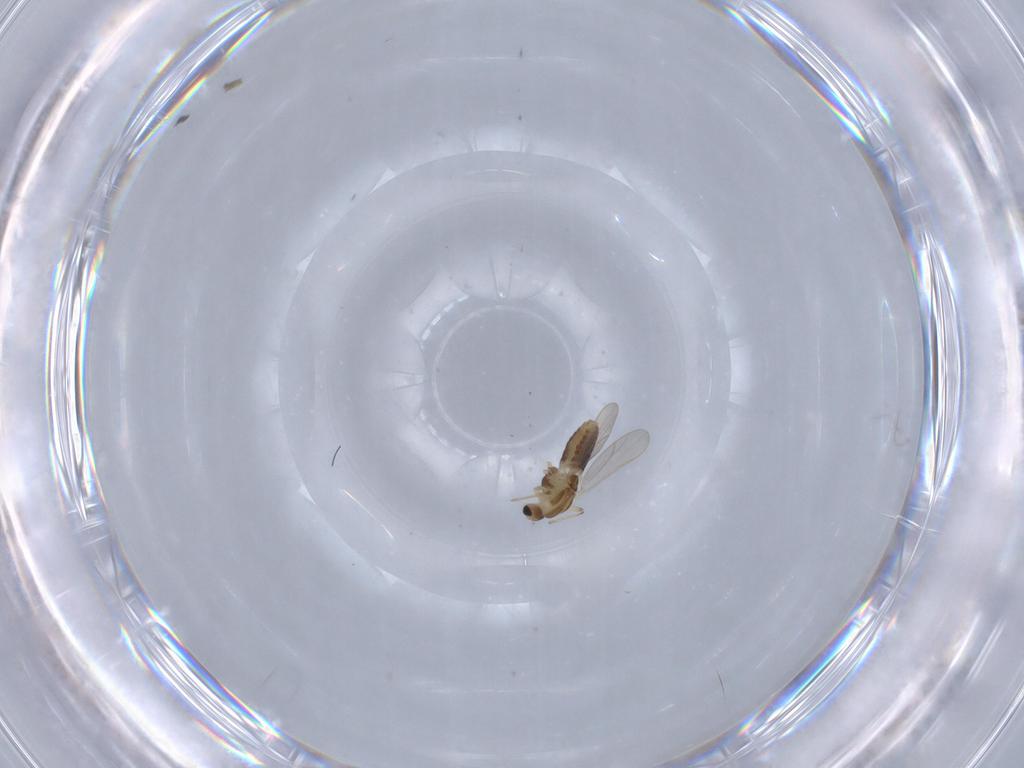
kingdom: Animalia
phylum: Arthropoda
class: Insecta
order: Diptera
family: Chironomidae
